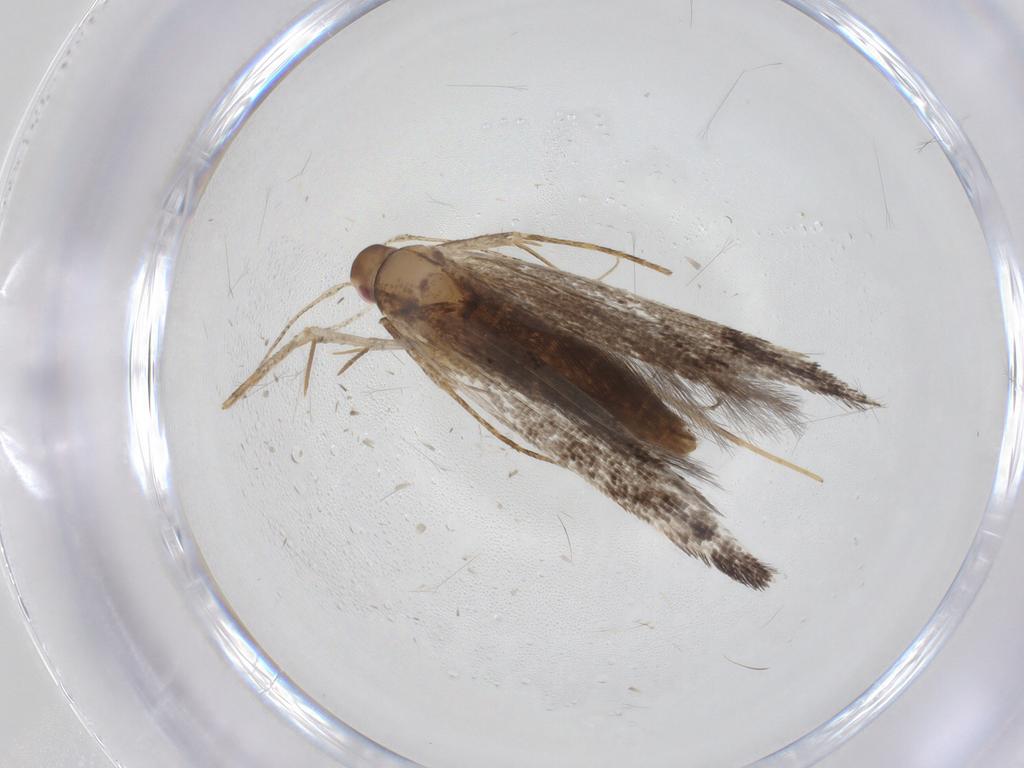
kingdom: Animalia
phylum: Arthropoda
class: Insecta
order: Lepidoptera
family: Cosmopterigidae
